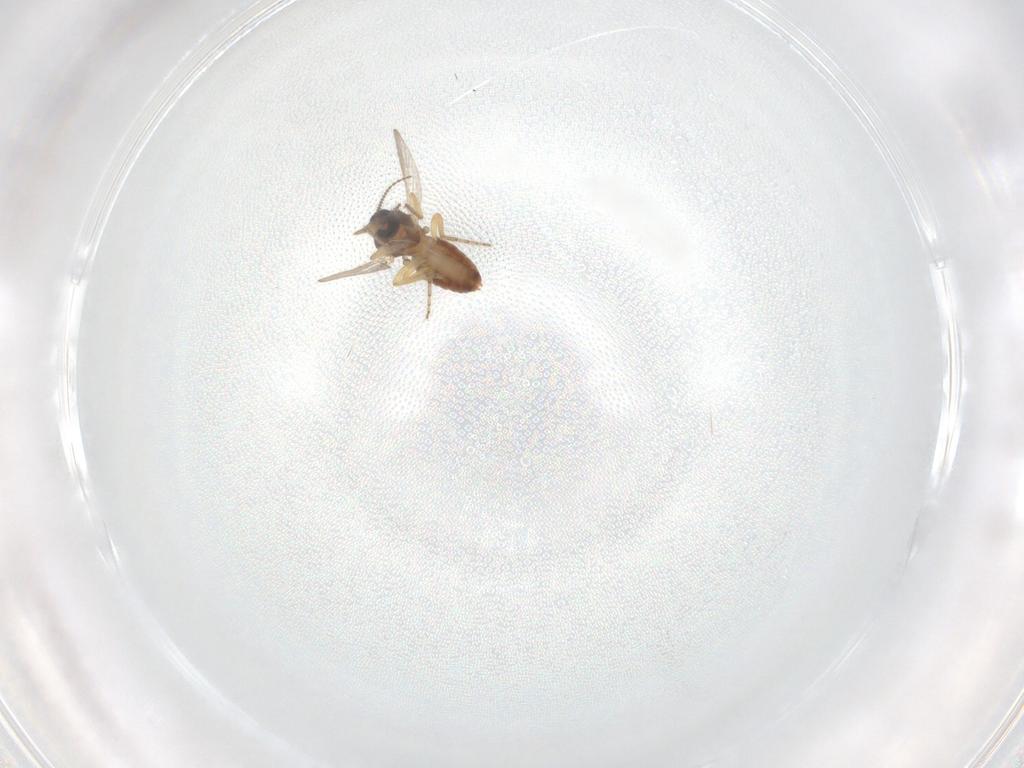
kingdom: Animalia
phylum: Arthropoda
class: Insecta
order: Diptera
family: Ceratopogonidae
